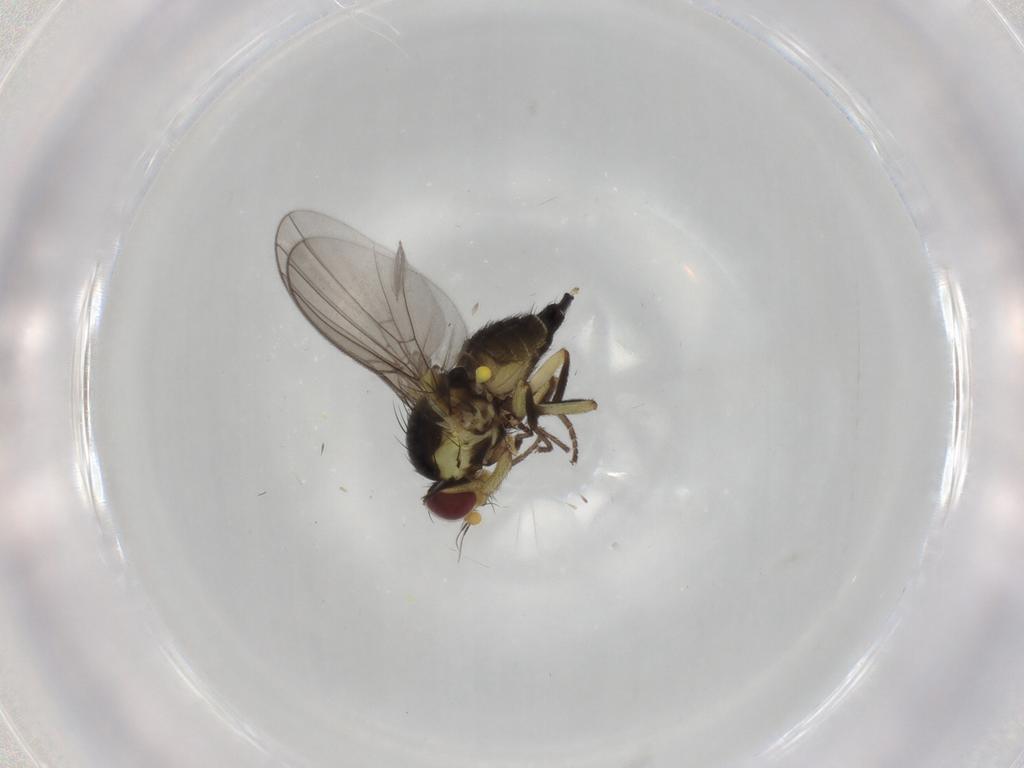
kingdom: Animalia
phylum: Arthropoda
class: Insecta
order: Diptera
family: Agromyzidae
